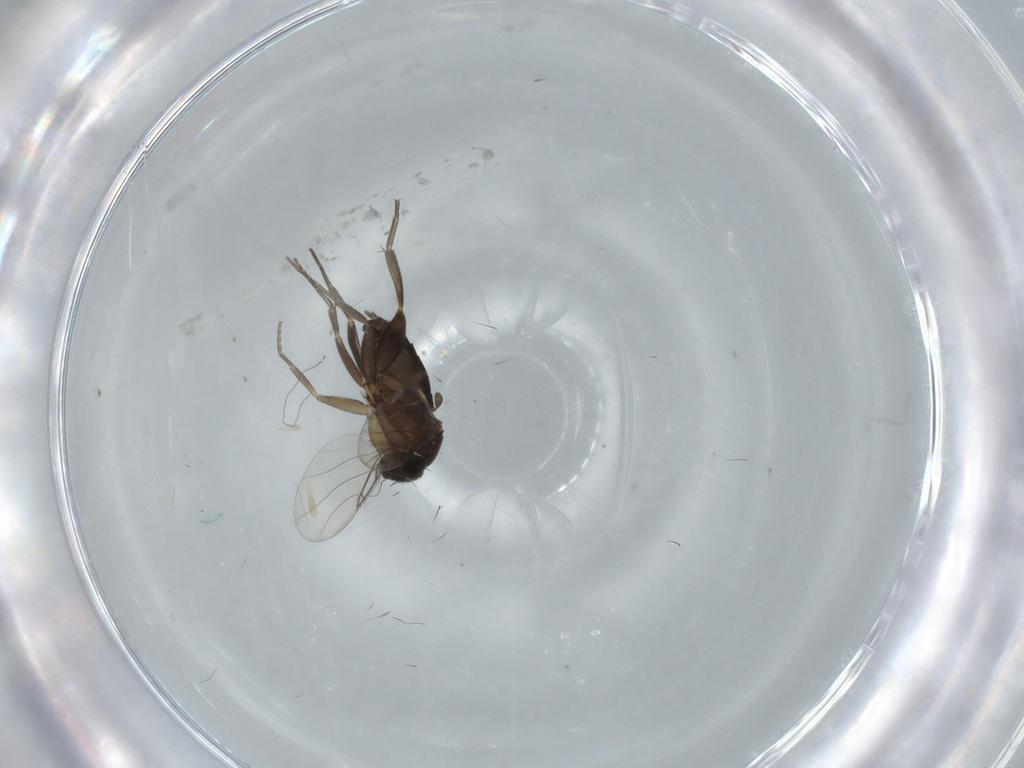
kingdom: Animalia
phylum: Arthropoda
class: Insecta
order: Diptera
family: Phoridae
